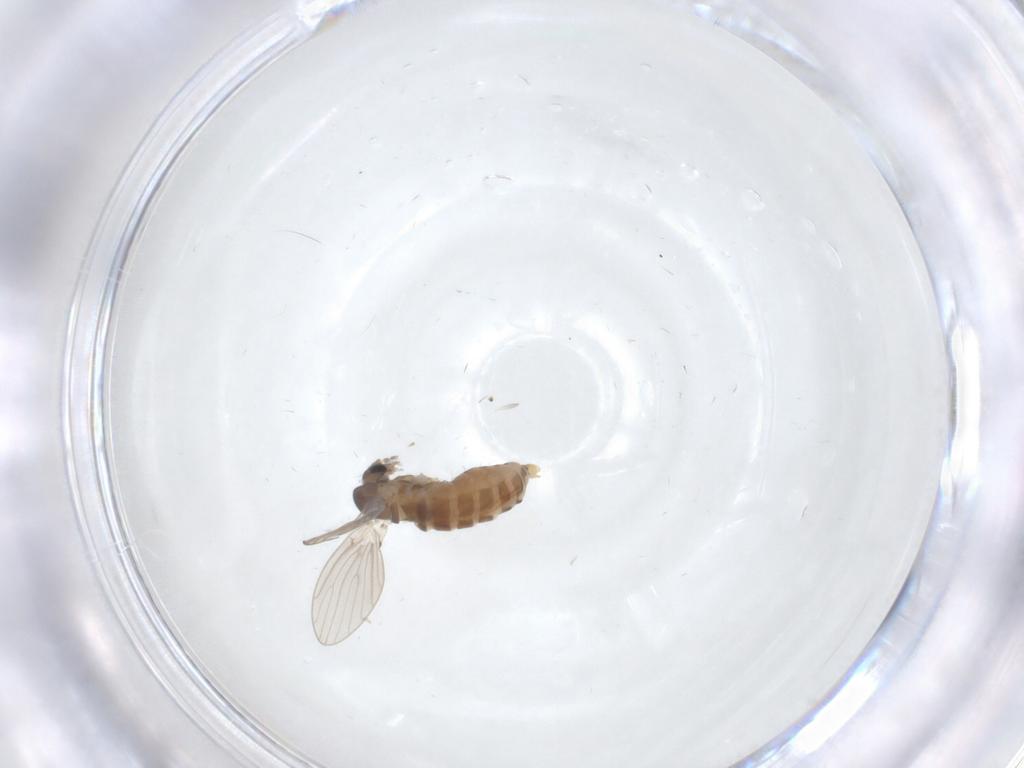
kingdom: Animalia
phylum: Arthropoda
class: Insecta
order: Diptera
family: Psychodidae
